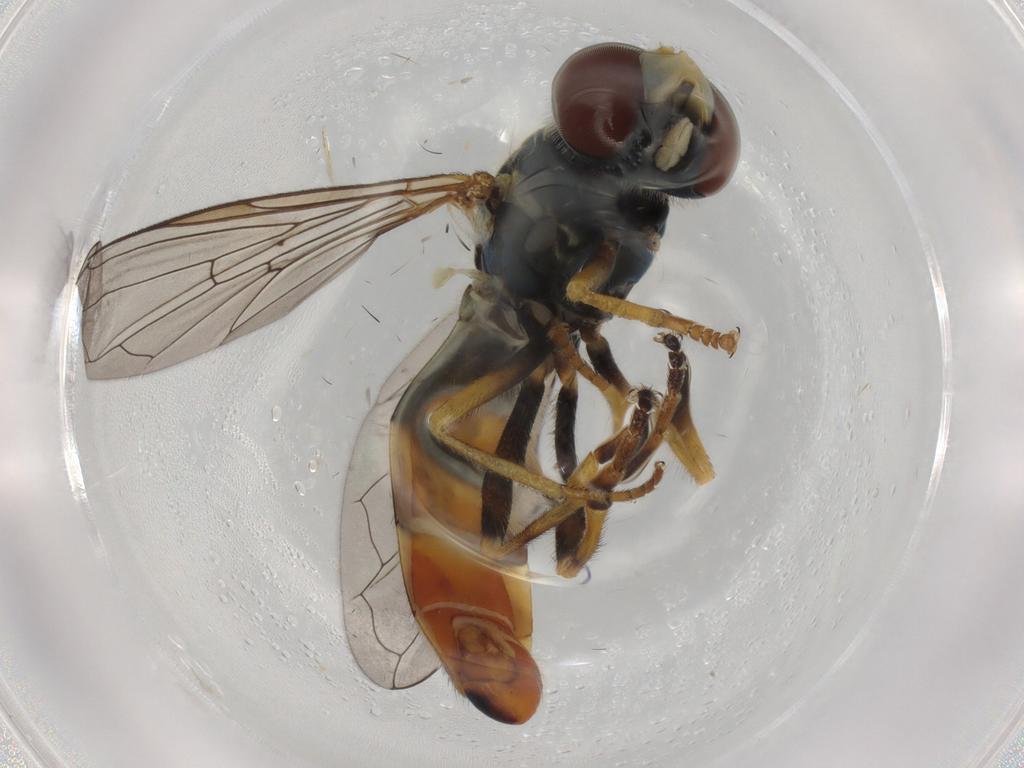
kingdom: Animalia
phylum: Arthropoda
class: Insecta
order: Diptera
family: Syrphidae
